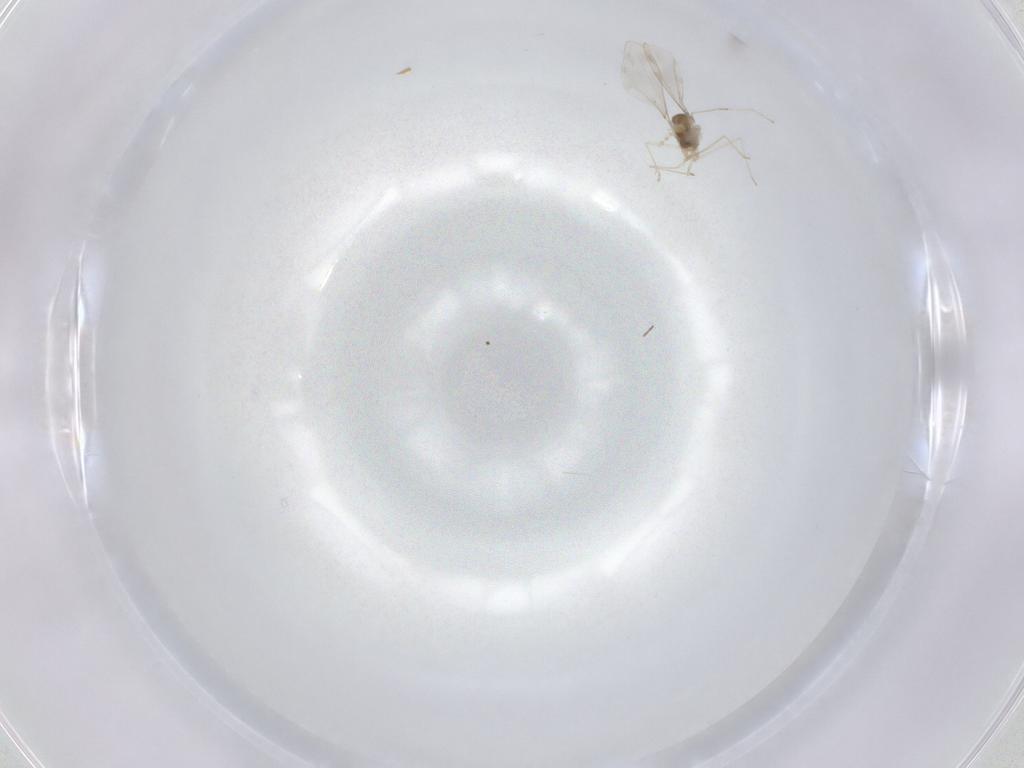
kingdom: Animalia
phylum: Arthropoda
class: Insecta
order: Diptera
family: Cecidomyiidae
